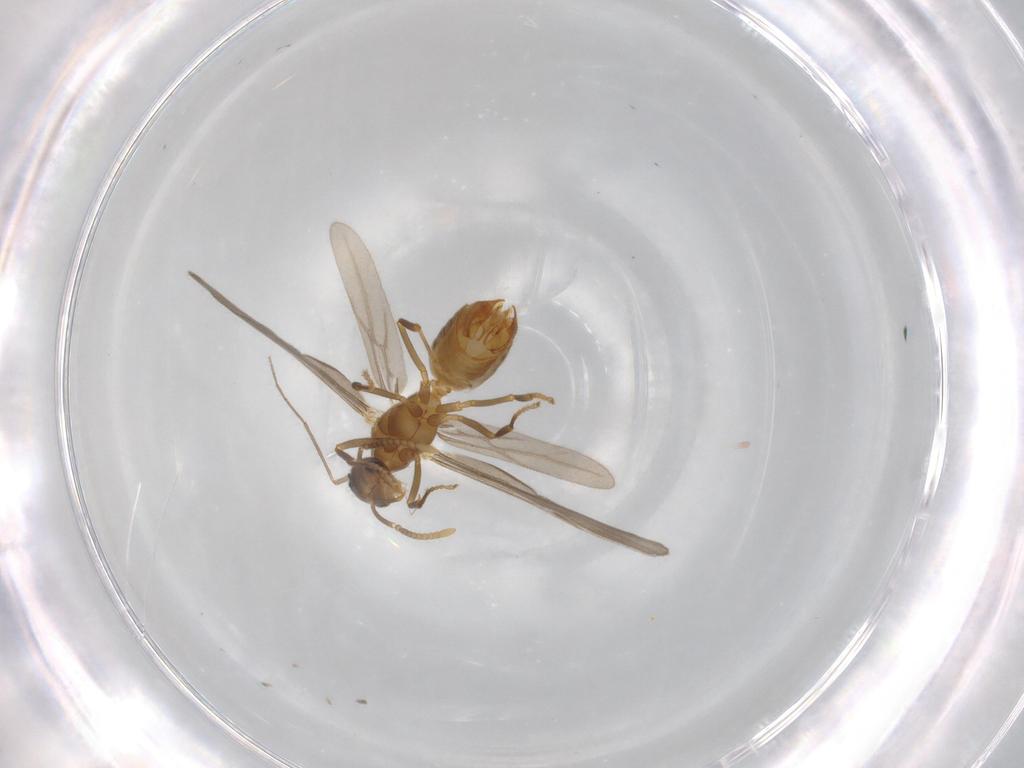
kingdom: Animalia
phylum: Arthropoda
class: Insecta
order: Hymenoptera
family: Formicidae
